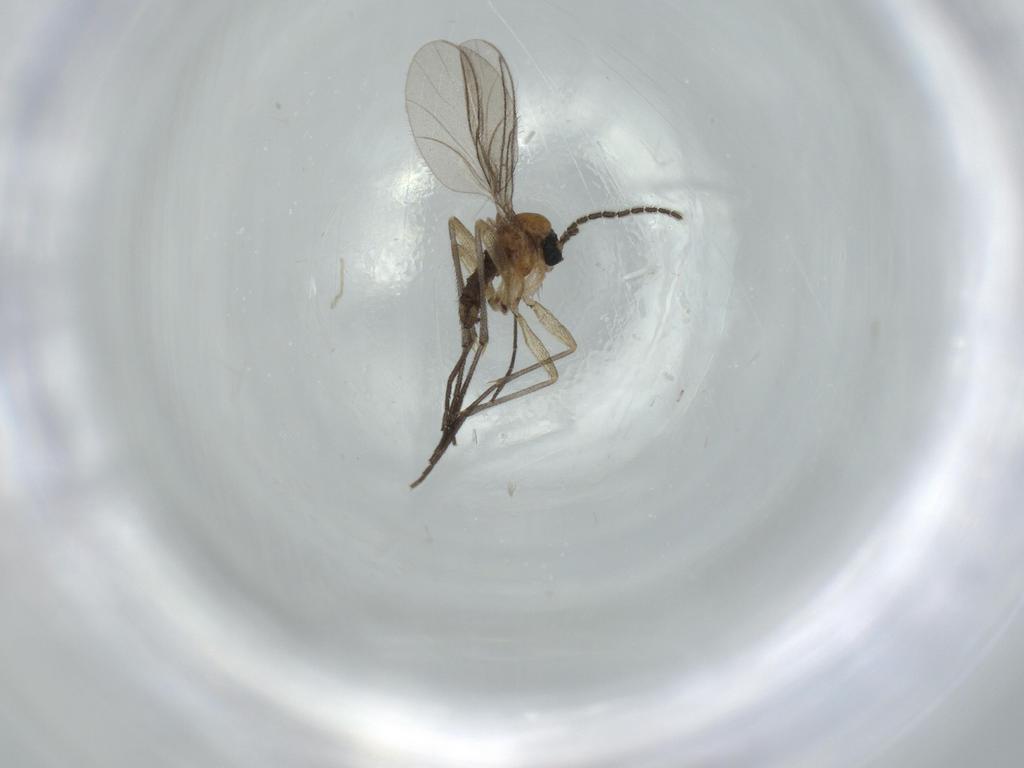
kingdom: Animalia
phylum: Arthropoda
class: Insecta
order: Diptera
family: Sciaridae
